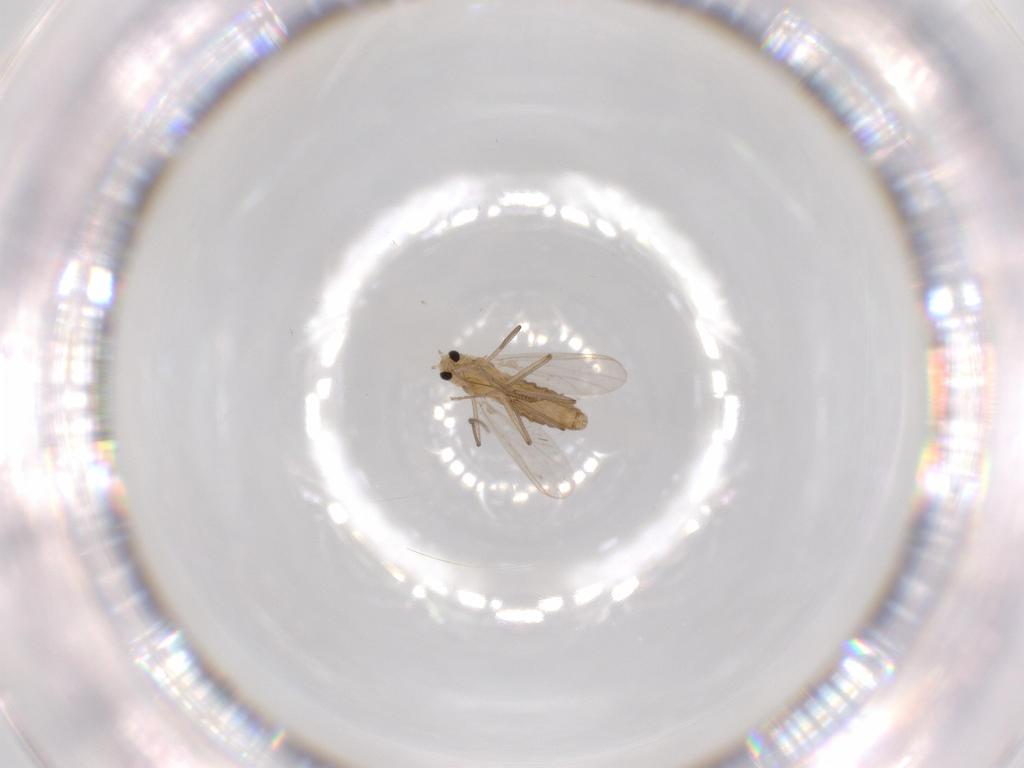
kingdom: Animalia
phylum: Arthropoda
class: Insecta
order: Diptera
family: Chironomidae
